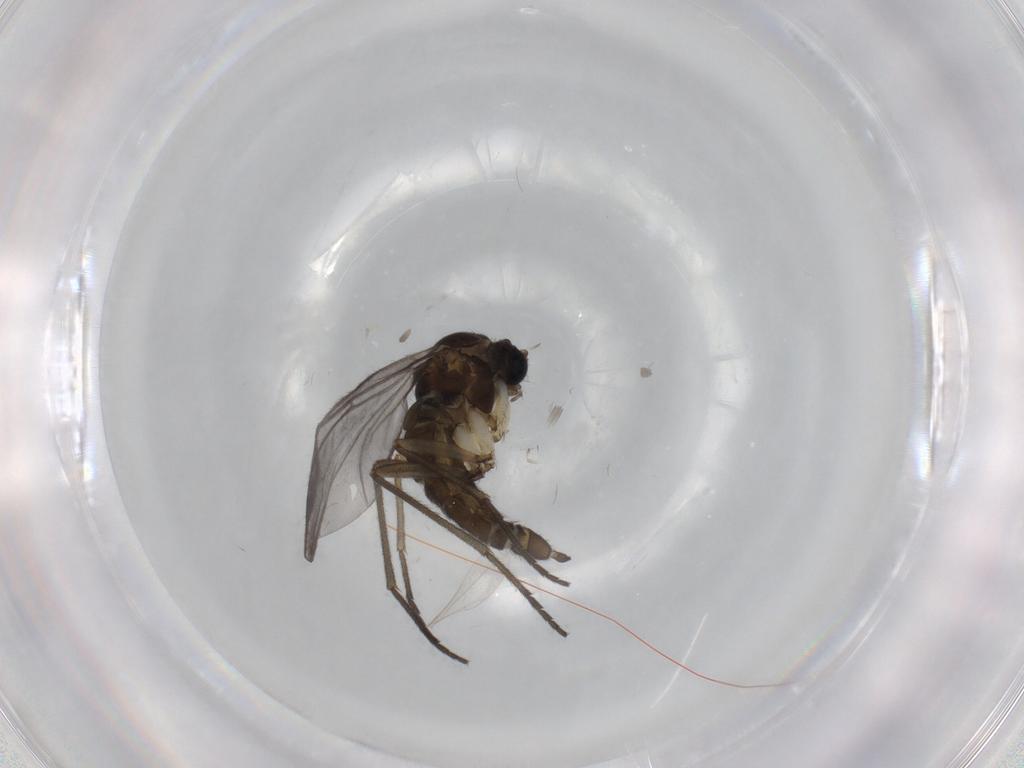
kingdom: Animalia
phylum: Arthropoda
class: Insecta
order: Diptera
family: Sciaridae
